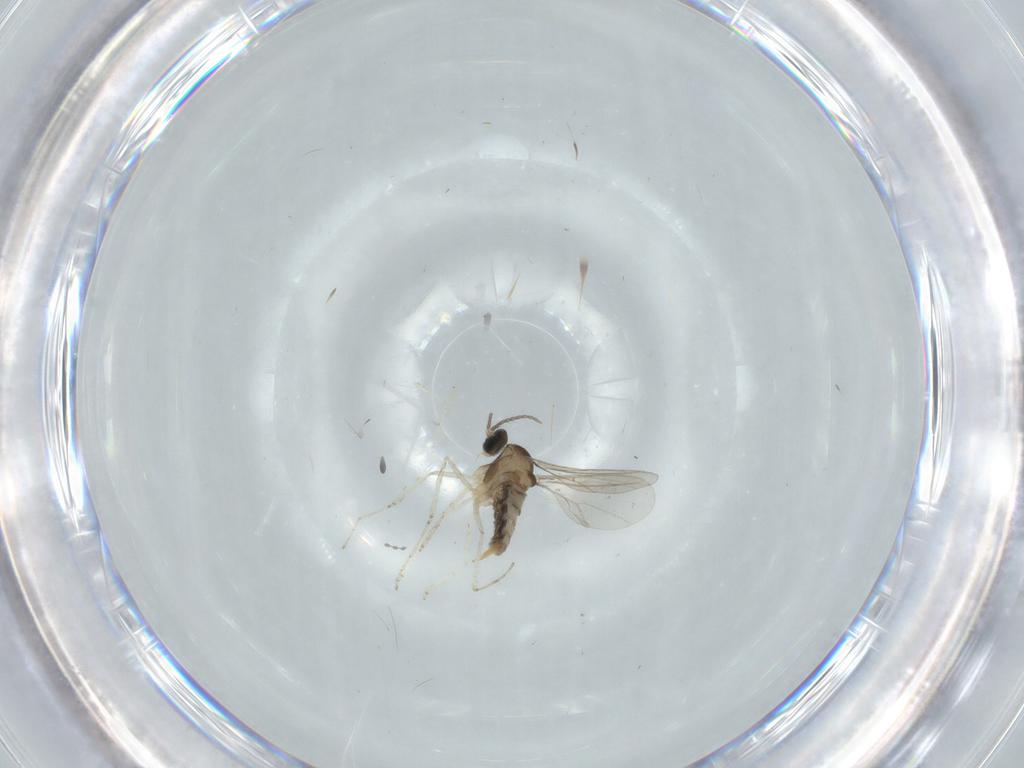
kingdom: Animalia
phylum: Arthropoda
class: Insecta
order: Diptera
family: Cecidomyiidae
